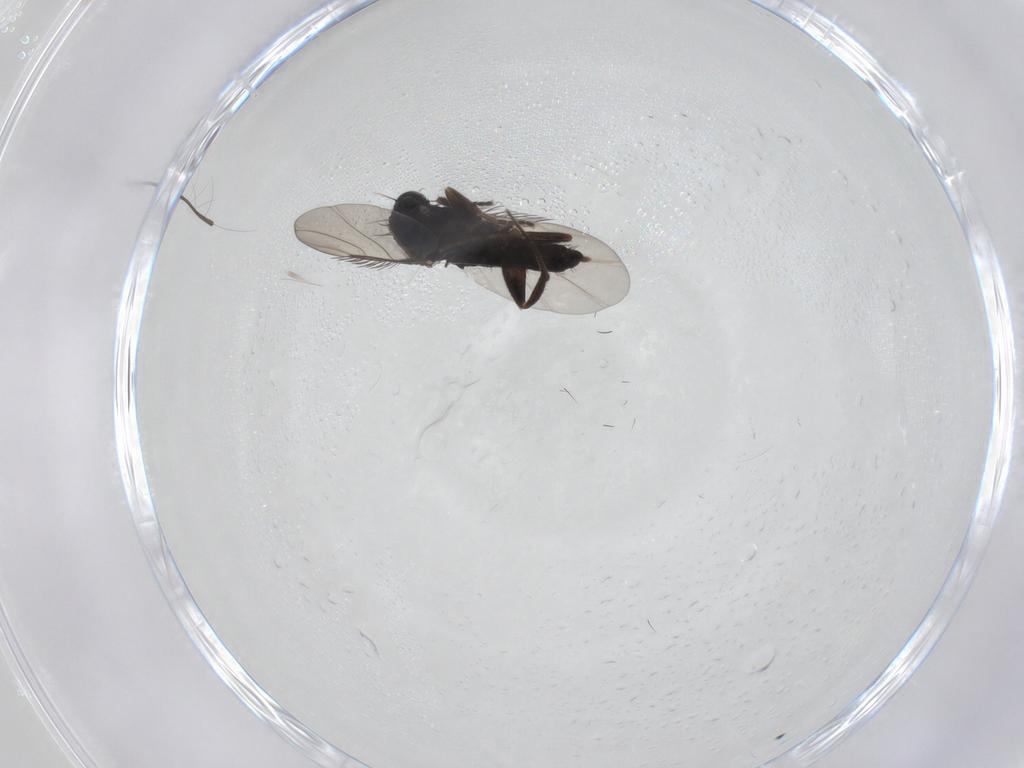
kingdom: Animalia
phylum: Arthropoda
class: Insecta
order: Diptera
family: Phoridae
